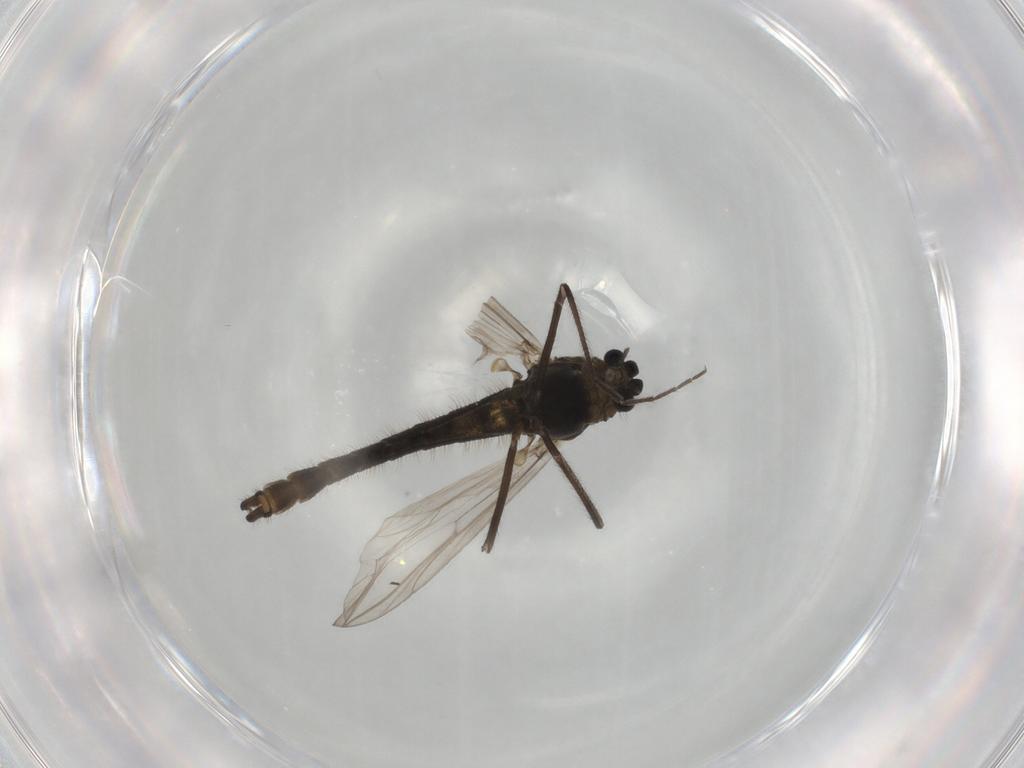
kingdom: Animalia
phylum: Arthropoda
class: Insecta
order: Diptera
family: Chironomidae
